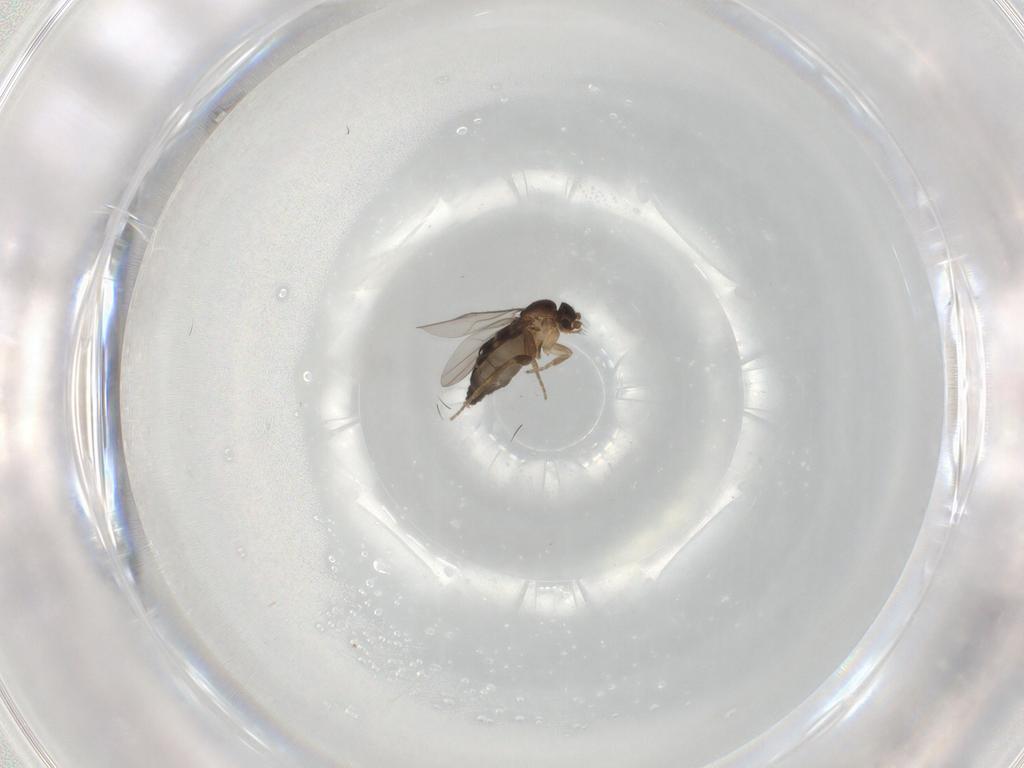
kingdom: Animalia
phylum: Arthropoda
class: Insecta
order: Diptera
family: Phoridae
